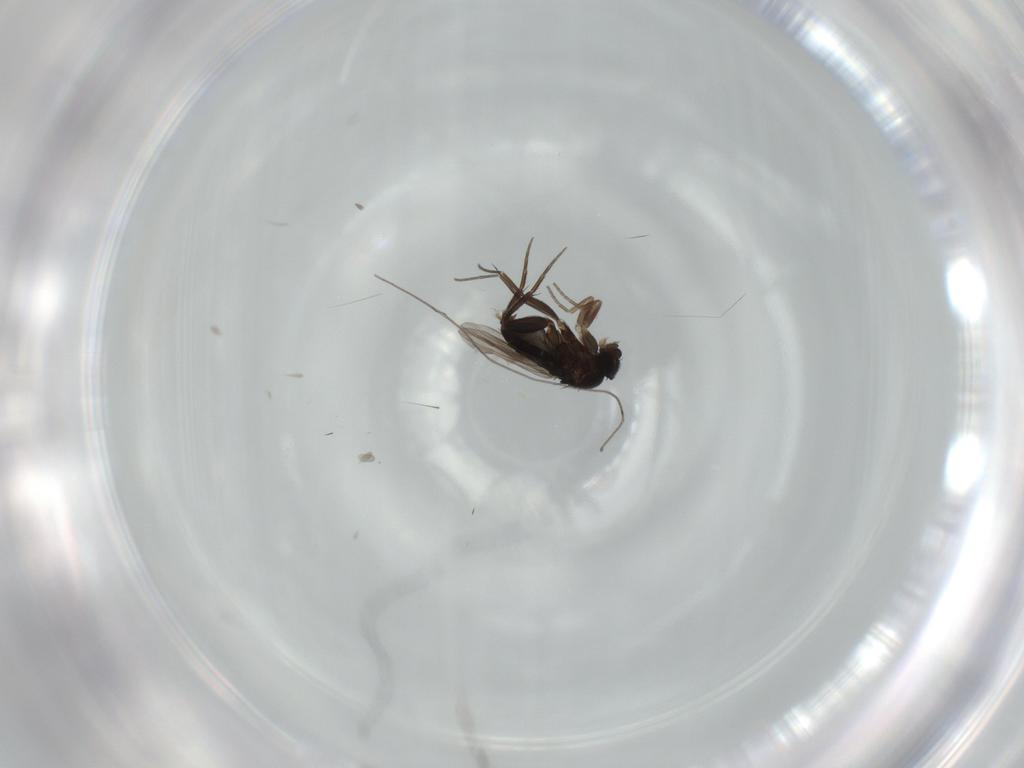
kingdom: Animalia
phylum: Arthropoda
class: Insecta
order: Diptera
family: Phoridae
